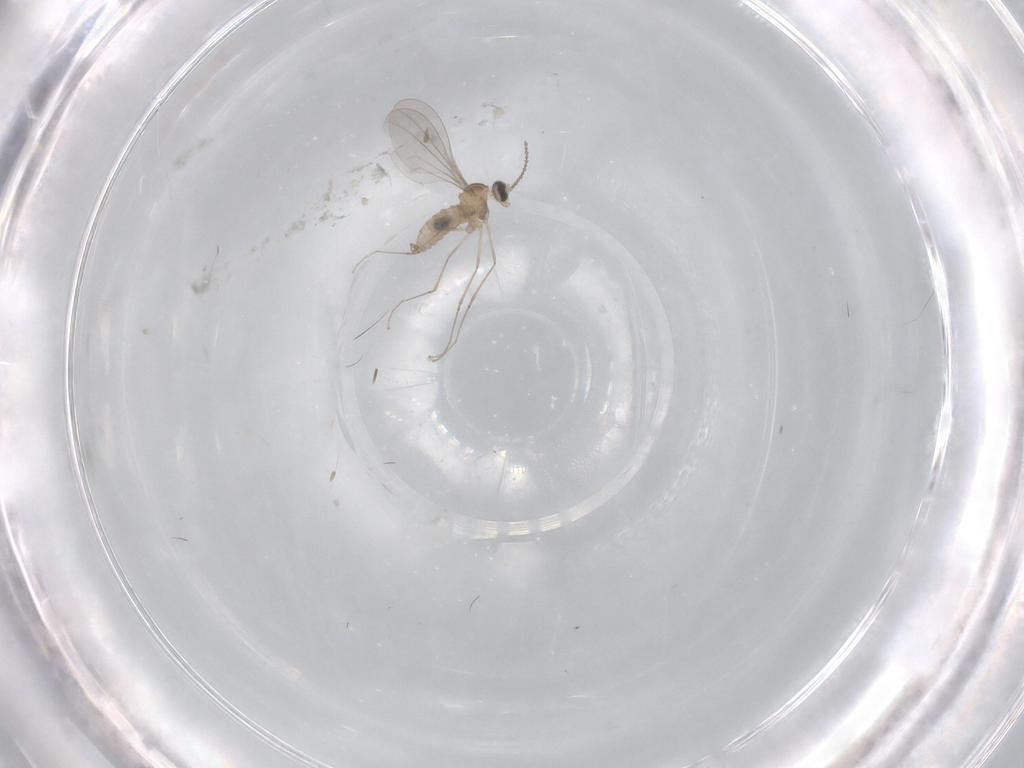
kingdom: Animalia
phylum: Arthropoda
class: Insecta
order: Diptera
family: Cecidomyiidae
